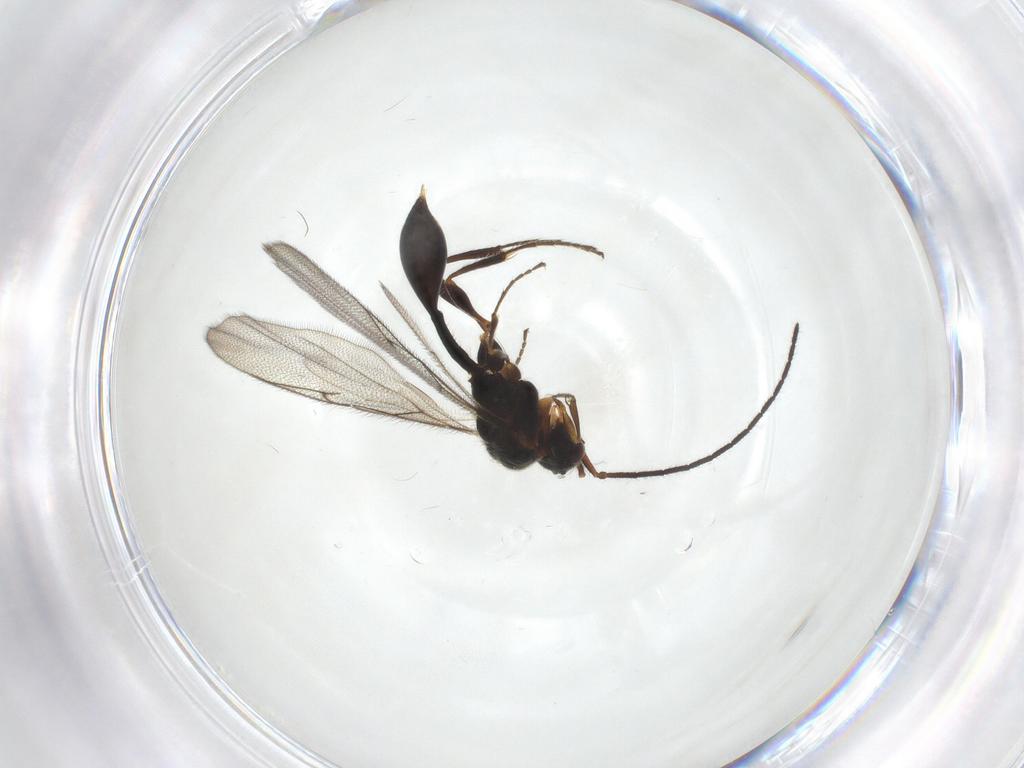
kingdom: Animalia
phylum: Arthropoda
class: Insecta
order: Hymenoptera
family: Diapriidae
